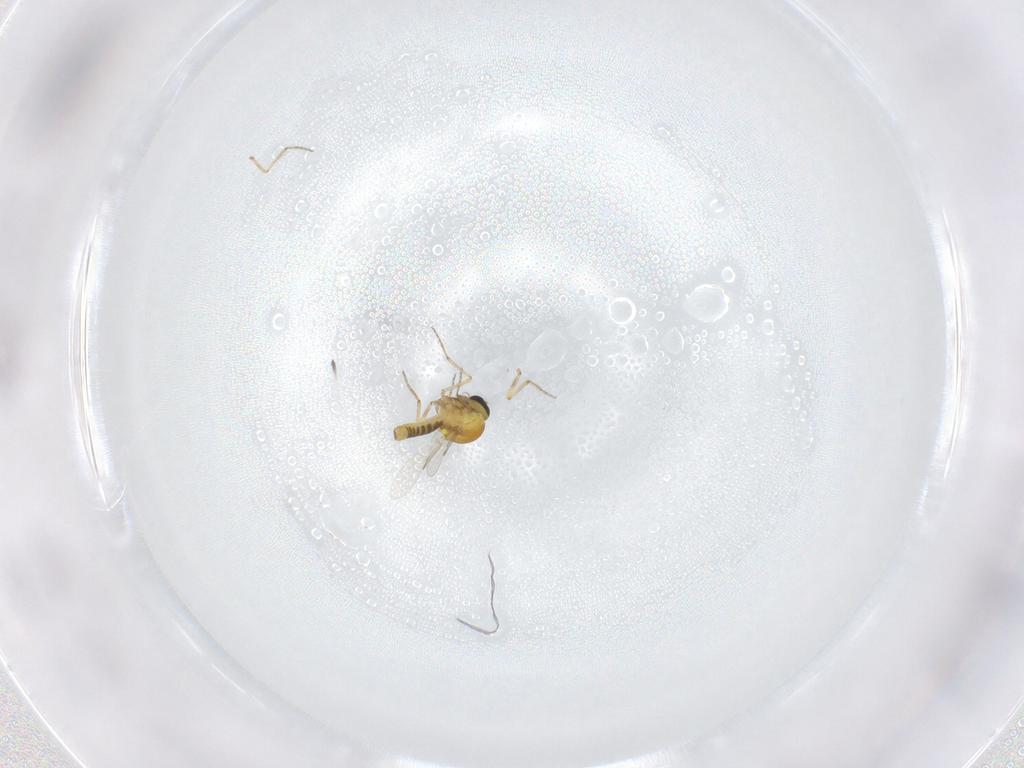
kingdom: Animalia
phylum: Arthropoda
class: Insecta
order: Diptera
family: Ceratopogonidae
